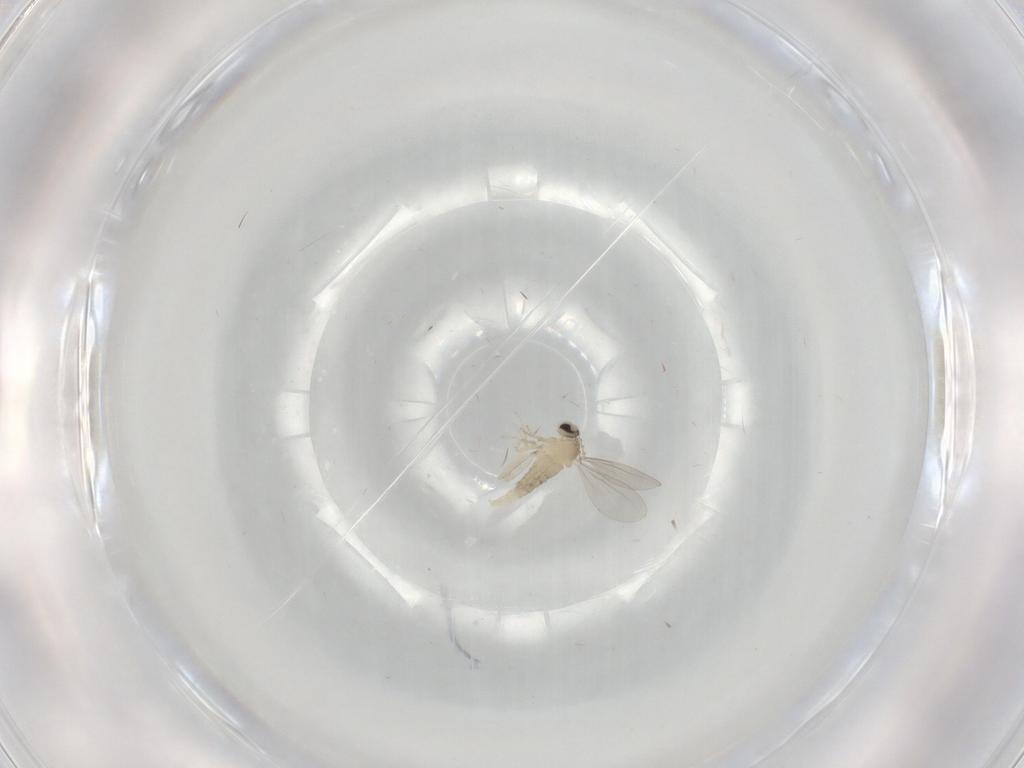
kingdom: Animalia
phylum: Arthropoda
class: Insecta
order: Diptera
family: Cecidomyiidae
